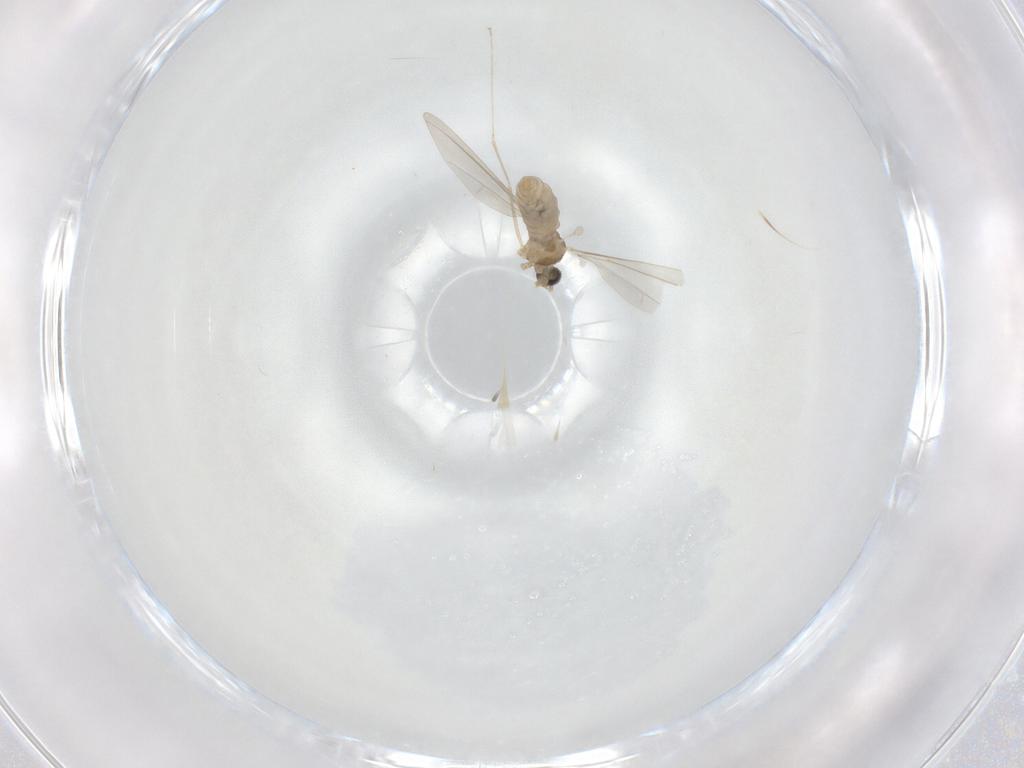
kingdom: Animalia
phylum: Arthropoda
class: Insecta
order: Diptera
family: Cecidomyiidae
